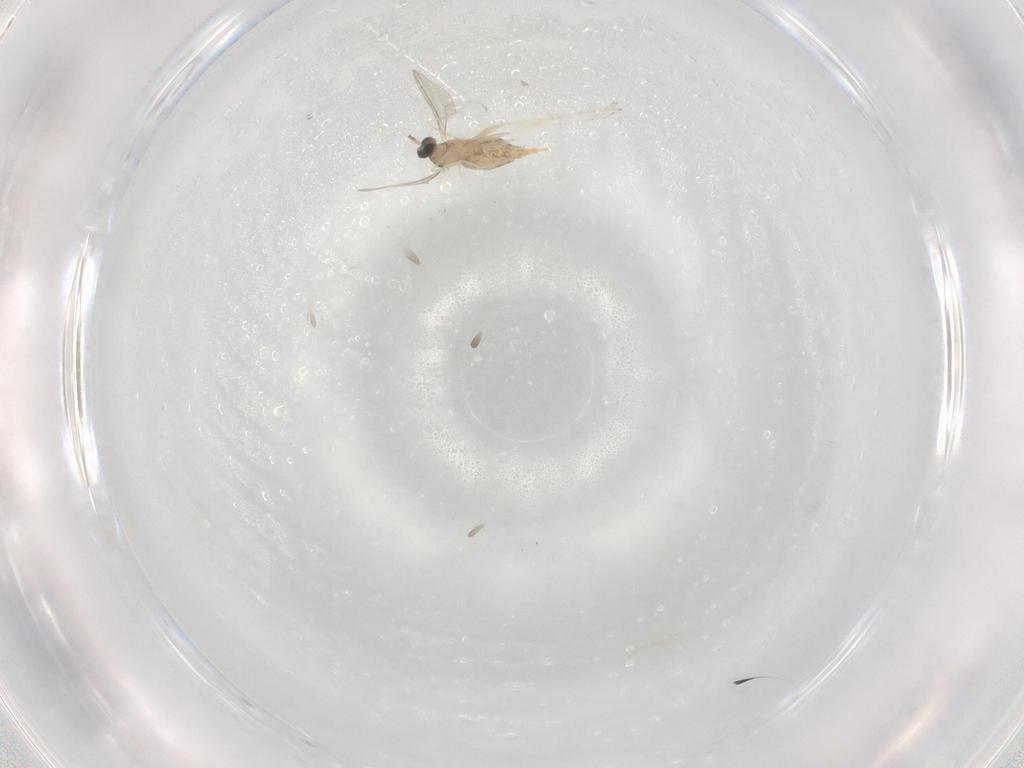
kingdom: Animalia
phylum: Arthropoda
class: Insecta
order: Diptera
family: Cecidomyiidae
